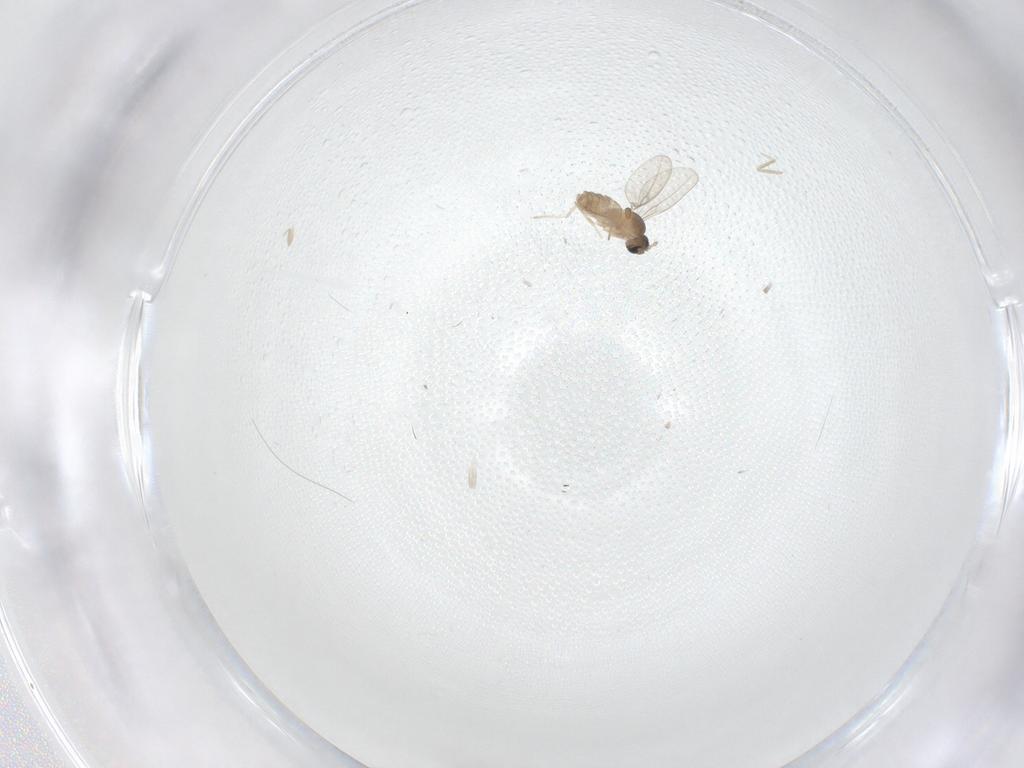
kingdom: Animalia
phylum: Arthropoda
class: Insecta
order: Diptera
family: Cecidomyiidae
